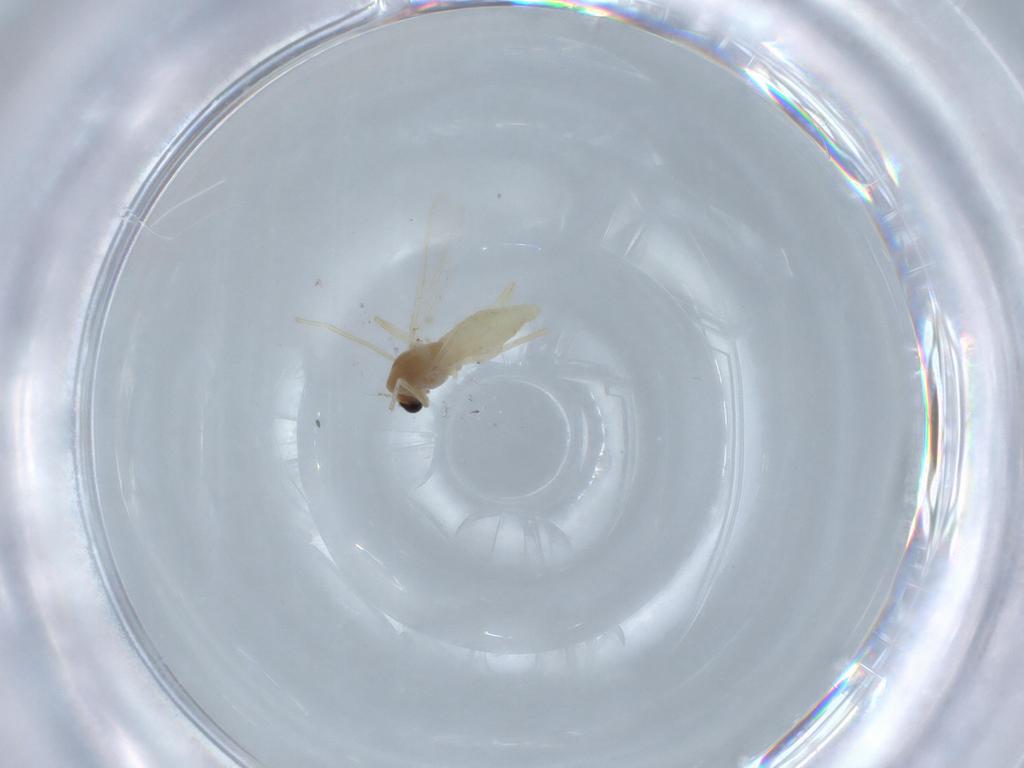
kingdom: Animalia
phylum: Arthropoda
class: Insecta
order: Diptera
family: Chironomidae
